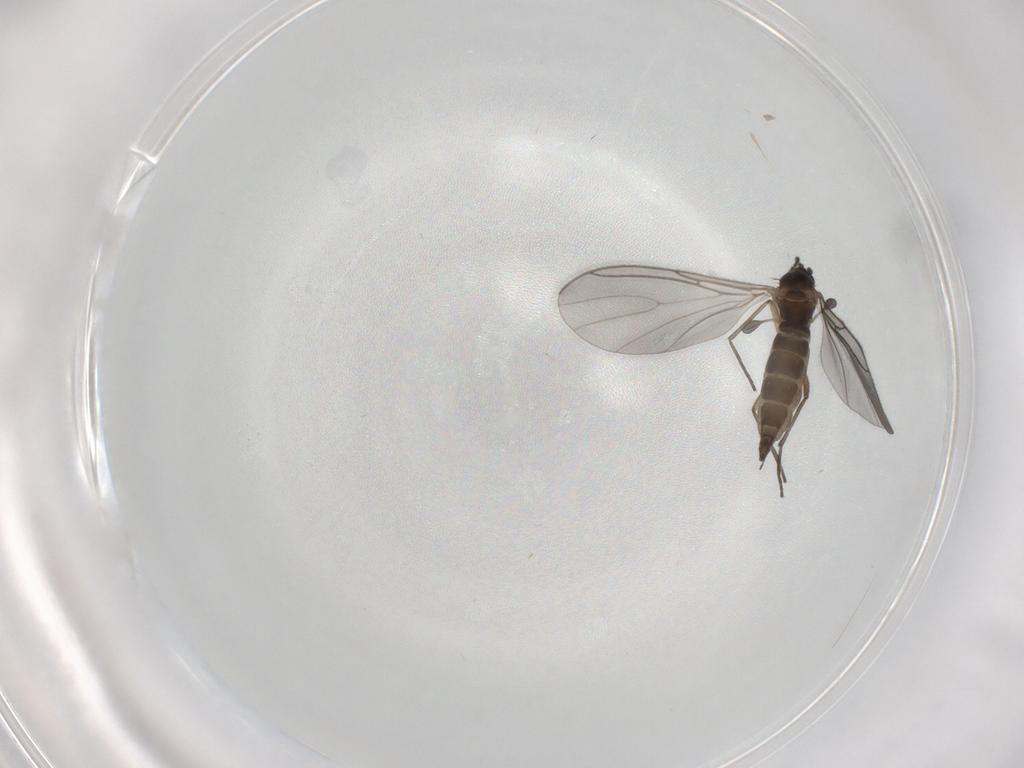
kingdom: Animalia
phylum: Arthropoda
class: Insecta
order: Diptera
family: Sciaridae
